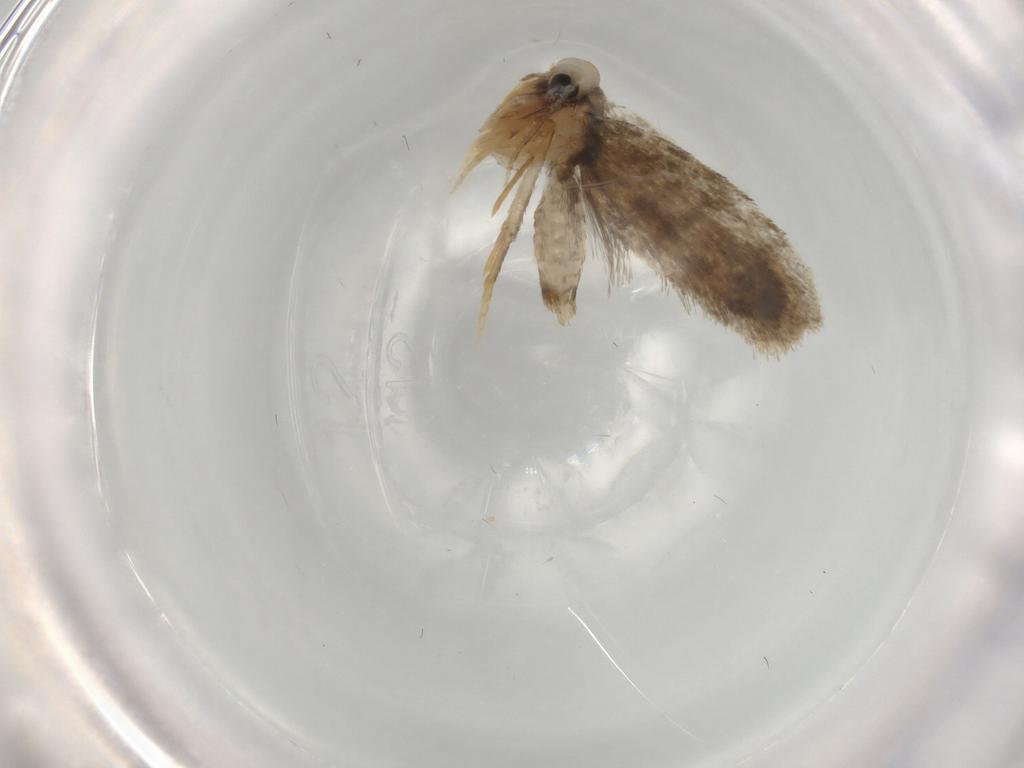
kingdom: Animalia
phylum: Arthropoda
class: Insecta
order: Lepidoptera
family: Psychidae
